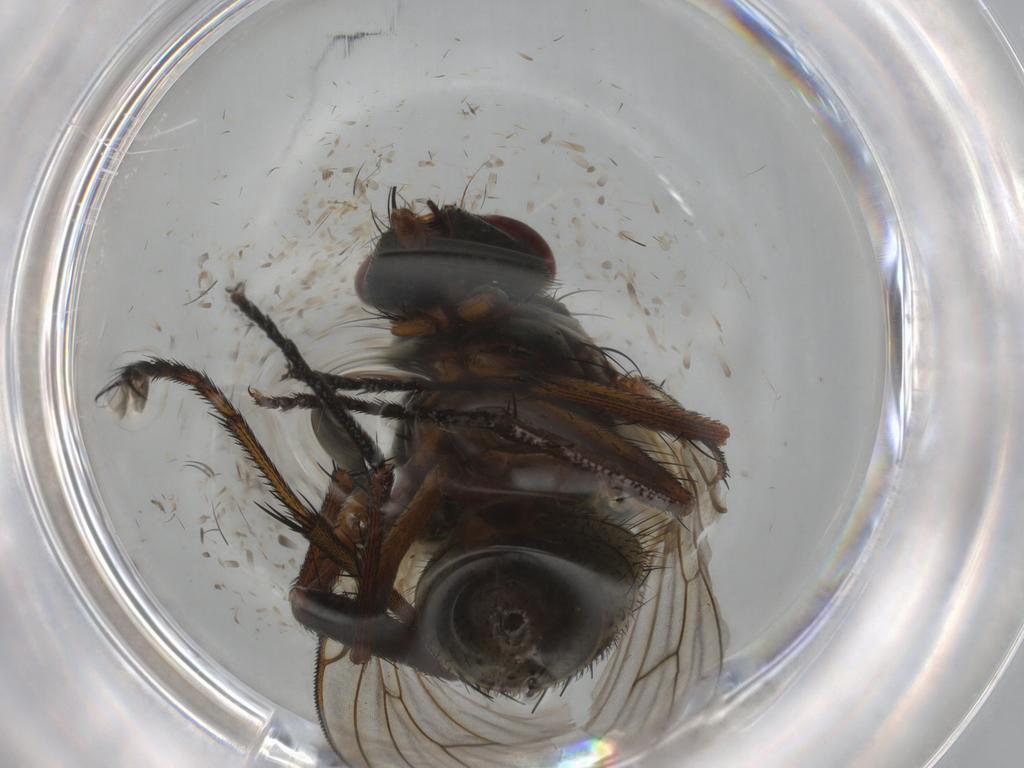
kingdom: Animalia
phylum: Arthropoda
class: Insecta
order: Diptera
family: Muscidae
